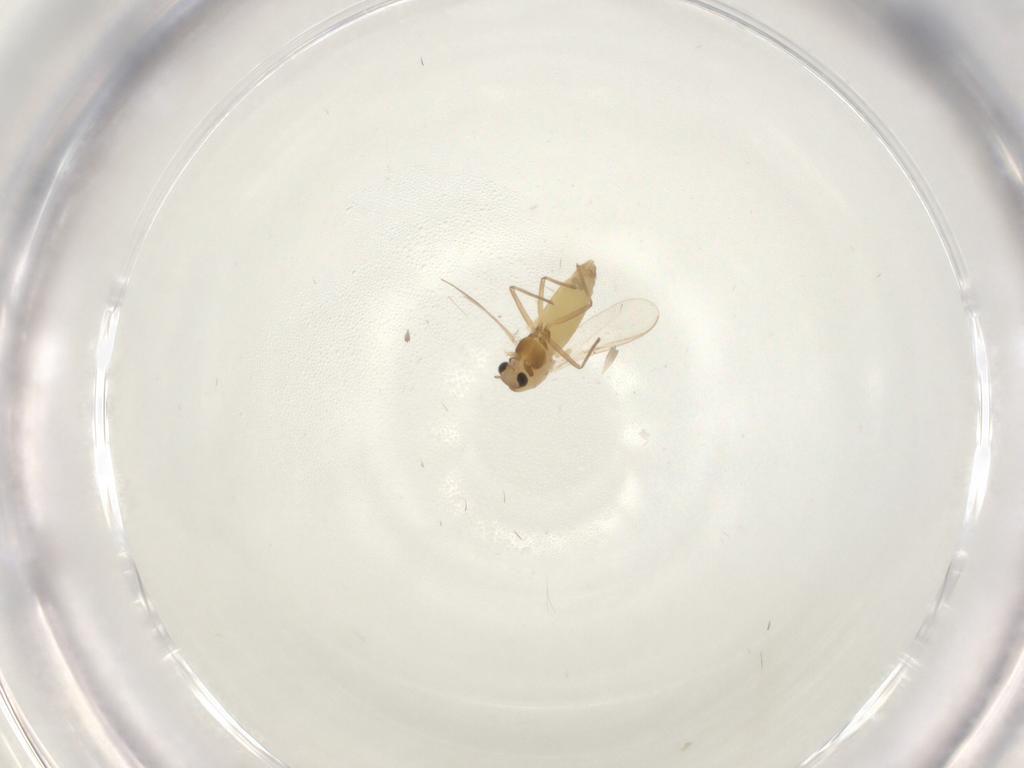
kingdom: Animalia
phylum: Arthropoda
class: Insecta
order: Diptera
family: Chironomidae
